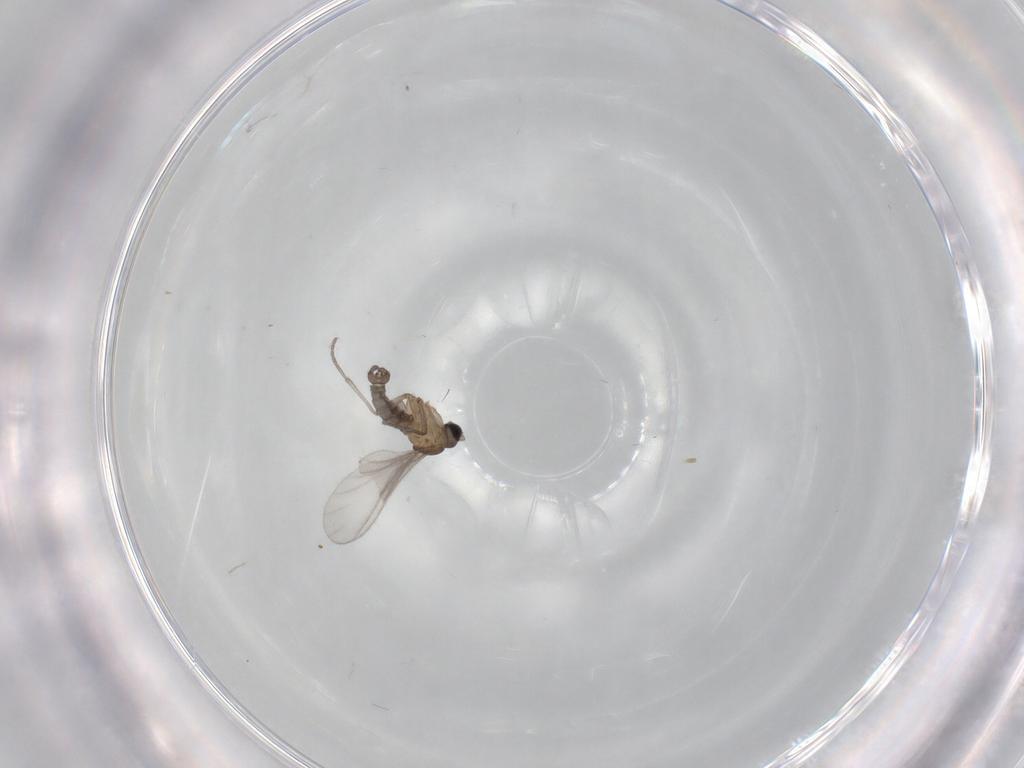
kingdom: Animalia
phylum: Arthropoda
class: Insecta
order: Diptera
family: Sciaridae
